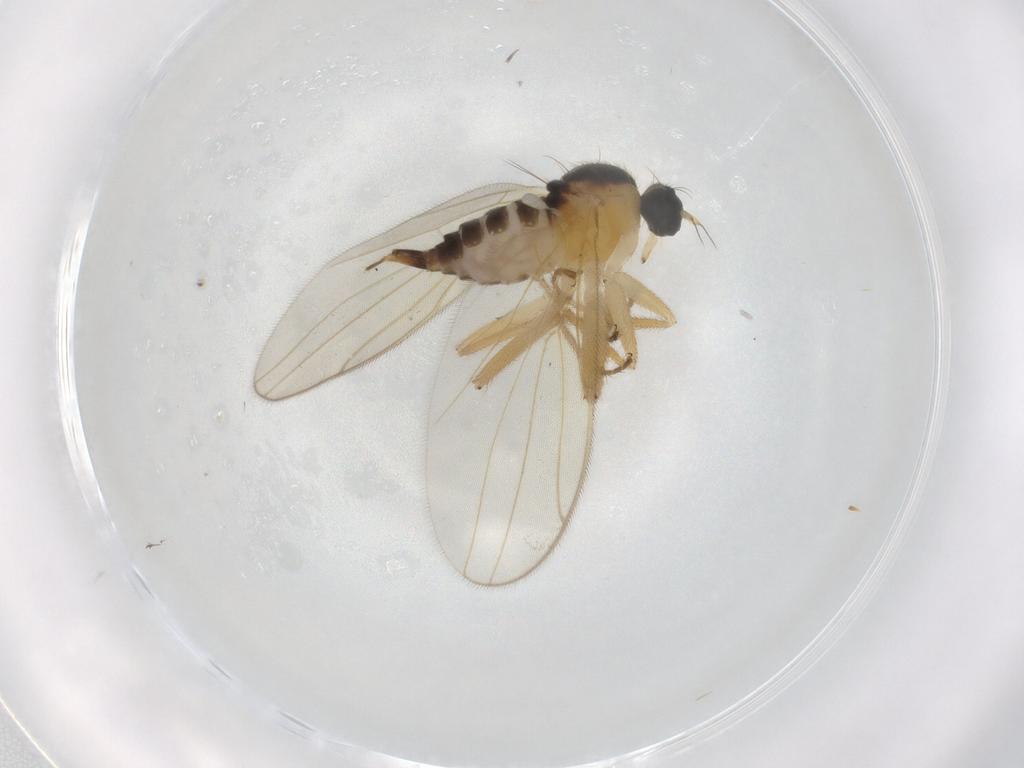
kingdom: Animalia
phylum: Arthropoda
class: Insecta
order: Diptera
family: Hybotidae
